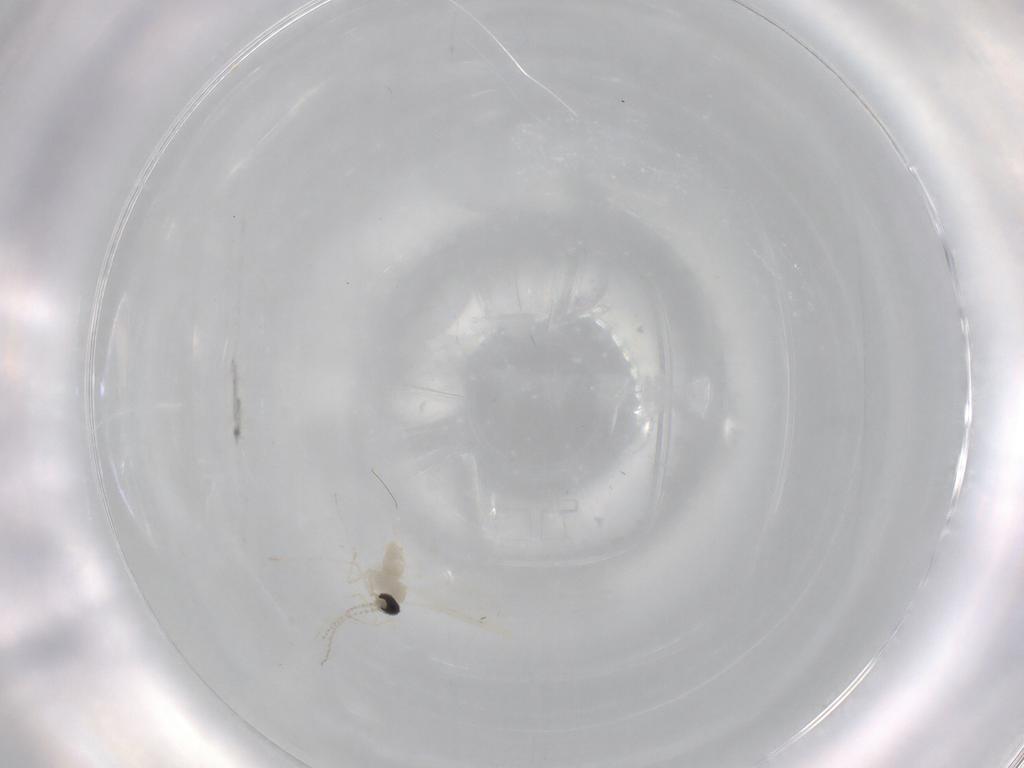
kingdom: Animalia
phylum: Arthropoda
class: Insecta
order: Diptera
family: Cecidomyiidae
